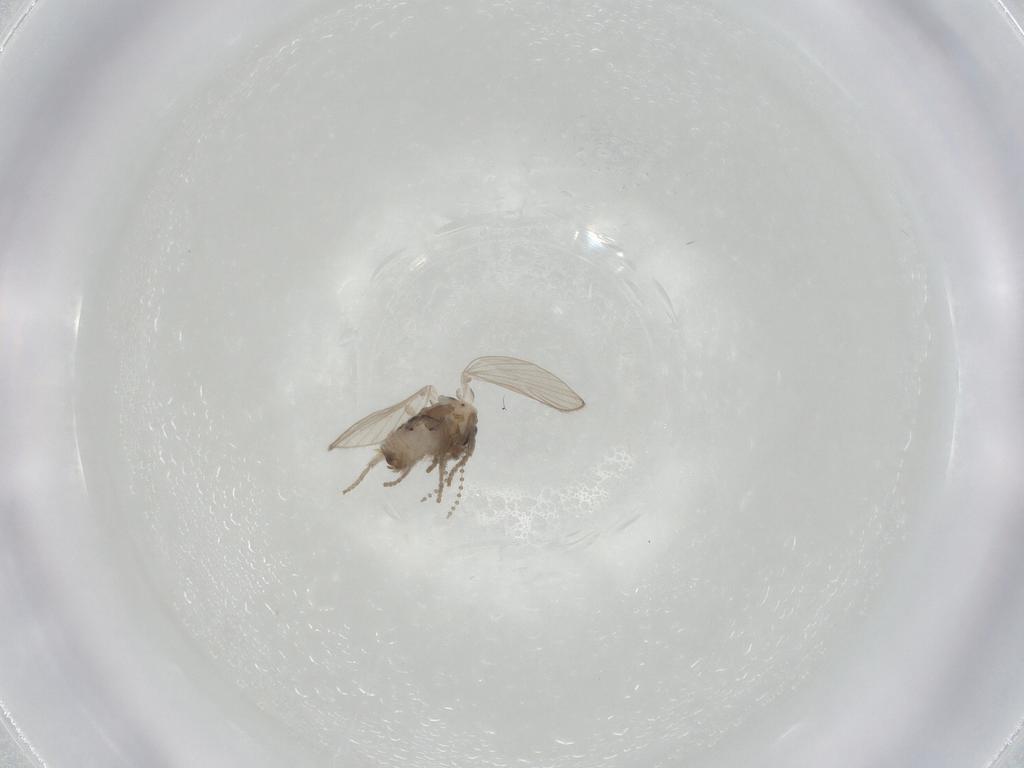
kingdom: Animalia
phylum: Arthropoda
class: Insecta
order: Diptera
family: Psychodidae
